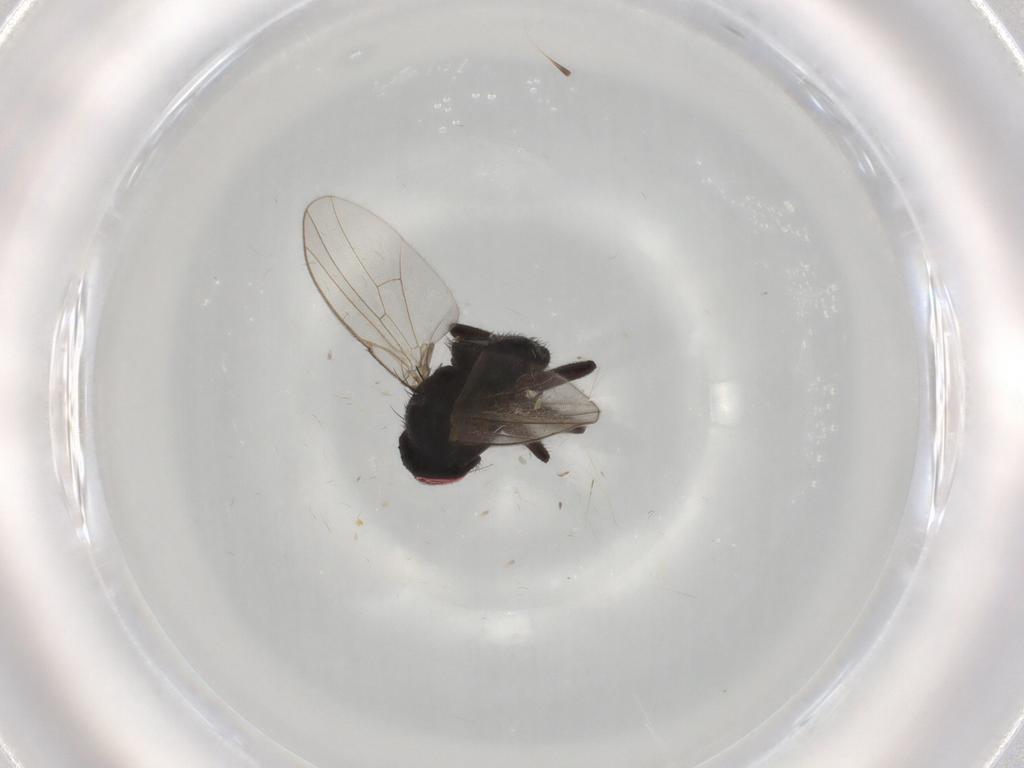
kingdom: Animalia
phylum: Arthropoda
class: Insecta
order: Diptera
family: Agromyzidae
